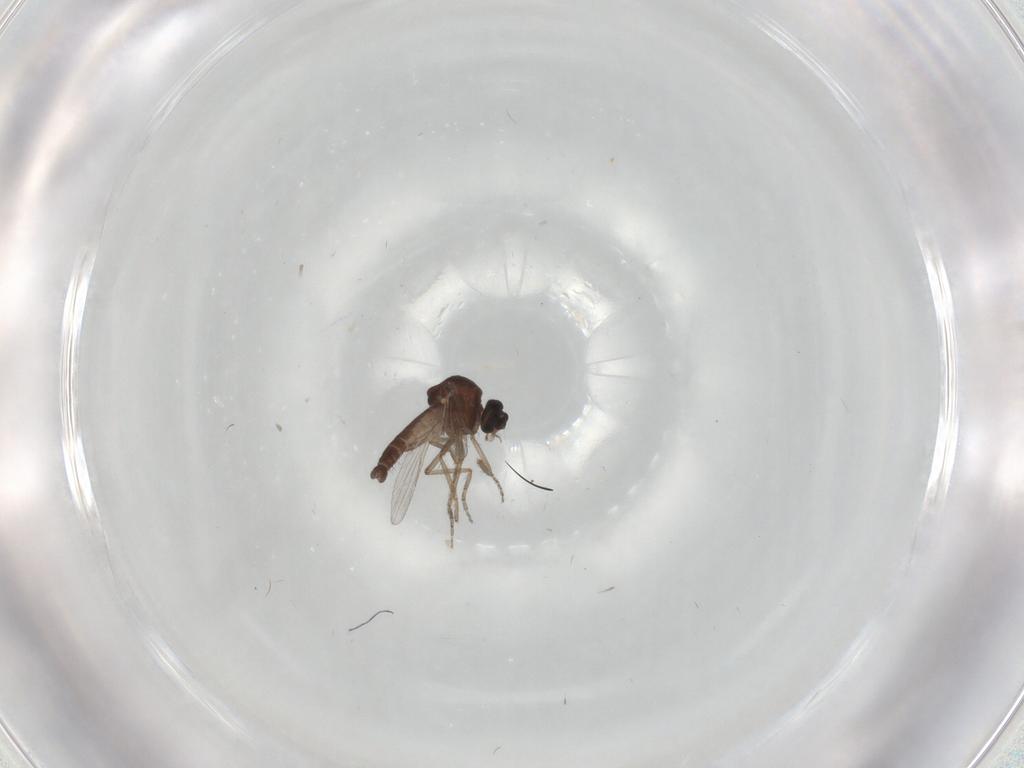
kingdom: Animalia
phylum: Arthropoda
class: Insecta
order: Diptera
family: Ceratopogonidae
